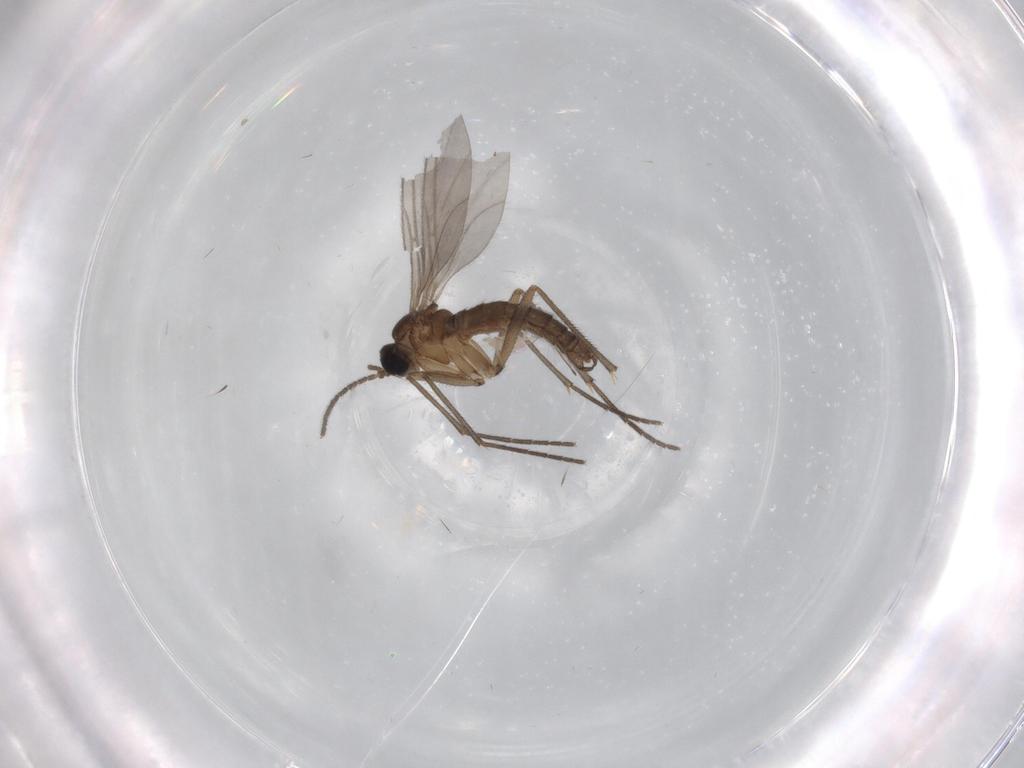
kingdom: Animalia
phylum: Arthropoda
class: Insecta
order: Diptera
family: Chironomidae
